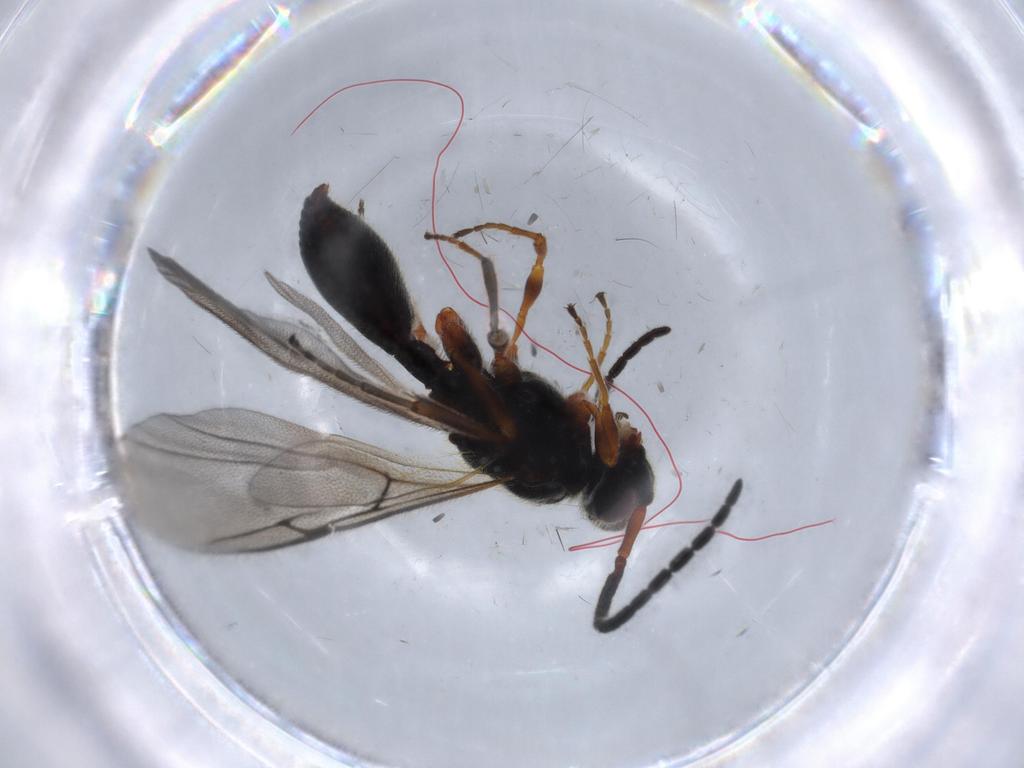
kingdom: Animalia
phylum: Arthropoda
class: Insecta
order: Hymenoptera
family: Diapriidae
